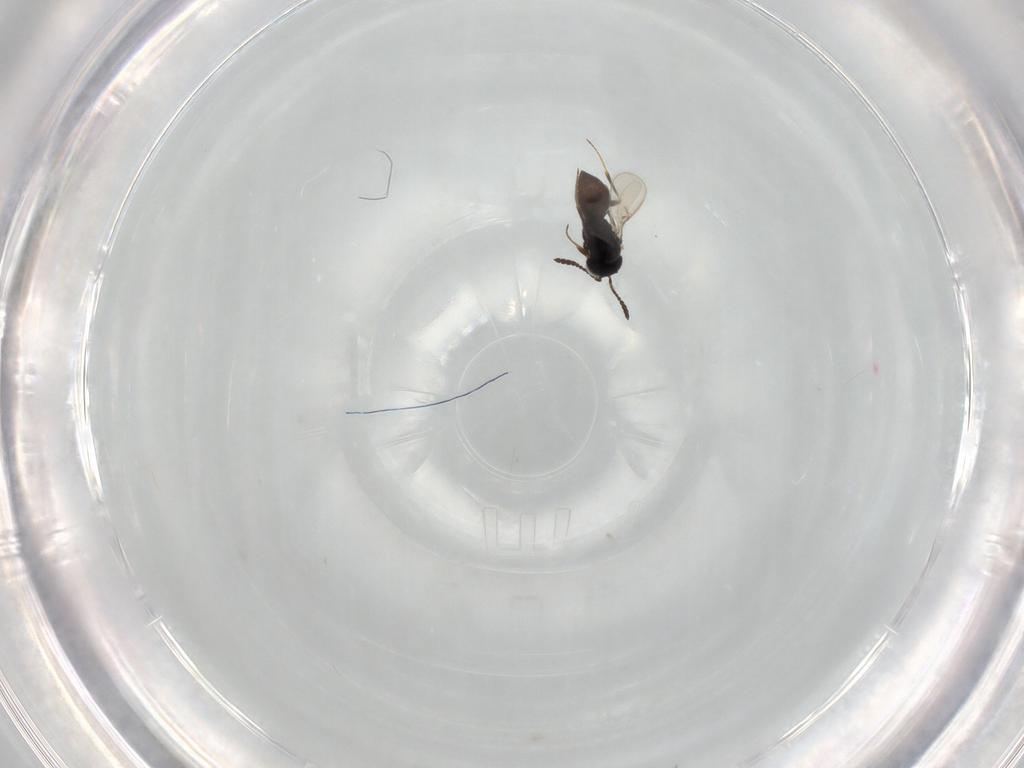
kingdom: Animalia
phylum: Arthropoda
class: Insecta
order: Hymenoptera
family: Scelionidae
